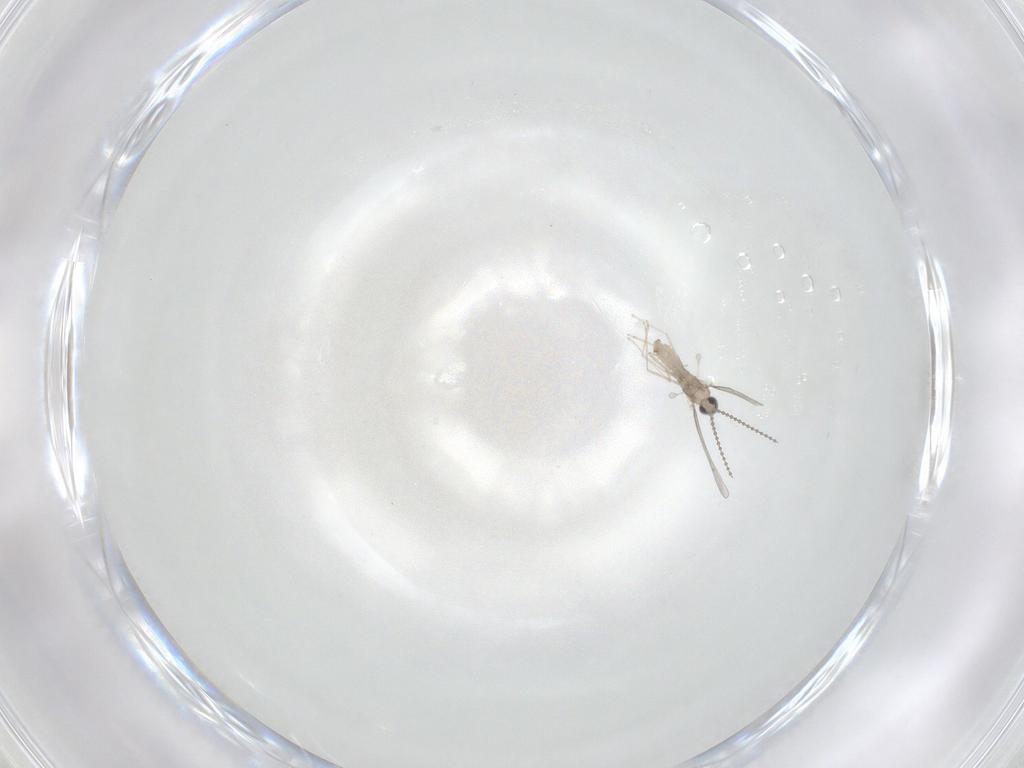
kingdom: Animalia
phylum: Arthropoda
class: Insecta
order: Diptera
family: Cecidomyiidae
